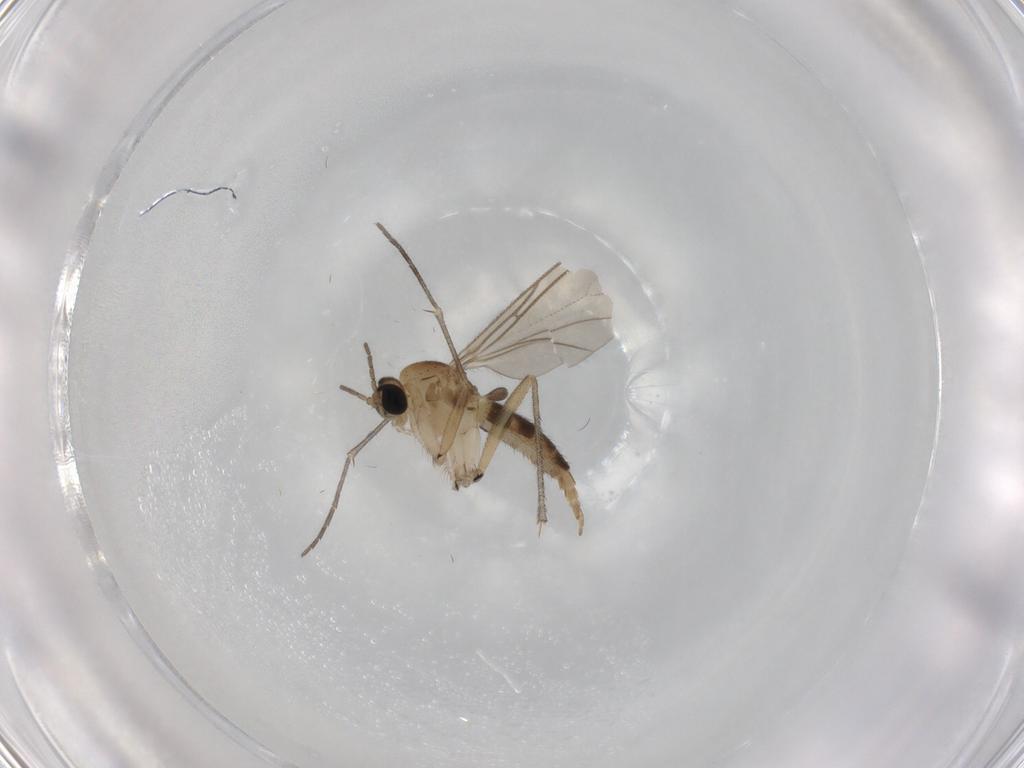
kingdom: Animalia
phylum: Arthropoda
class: Insecta
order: Diptera
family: Sciaridae
